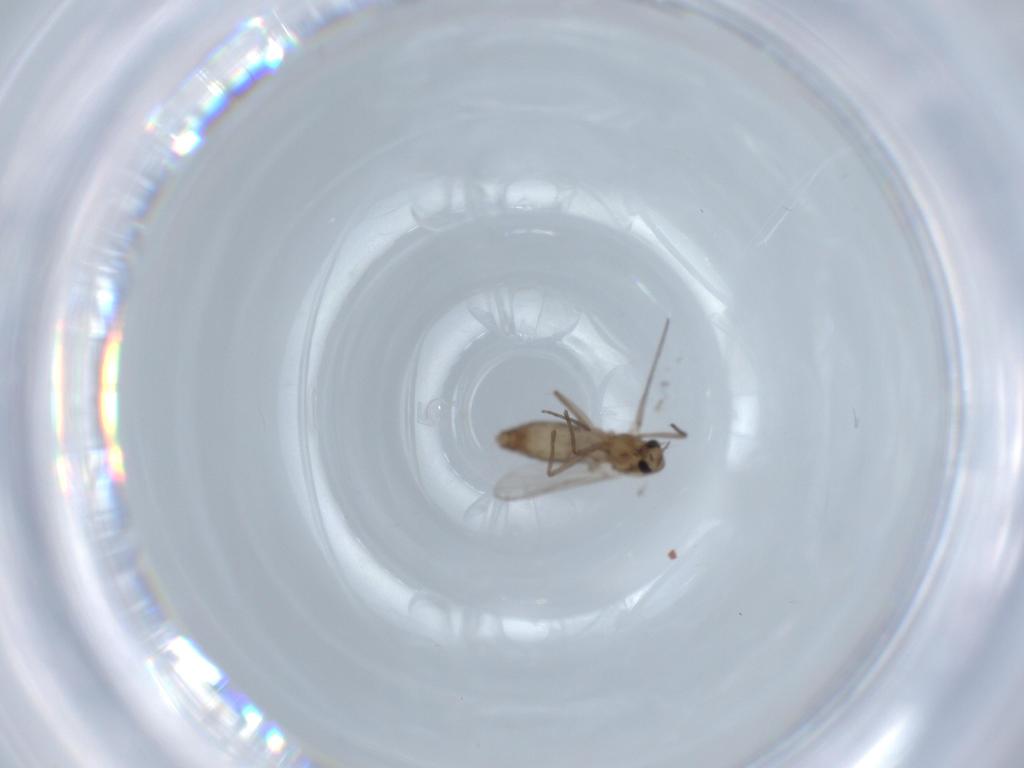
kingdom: Animalia
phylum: Arthropoda
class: Insecta
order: Diptera
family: Chironomidae
